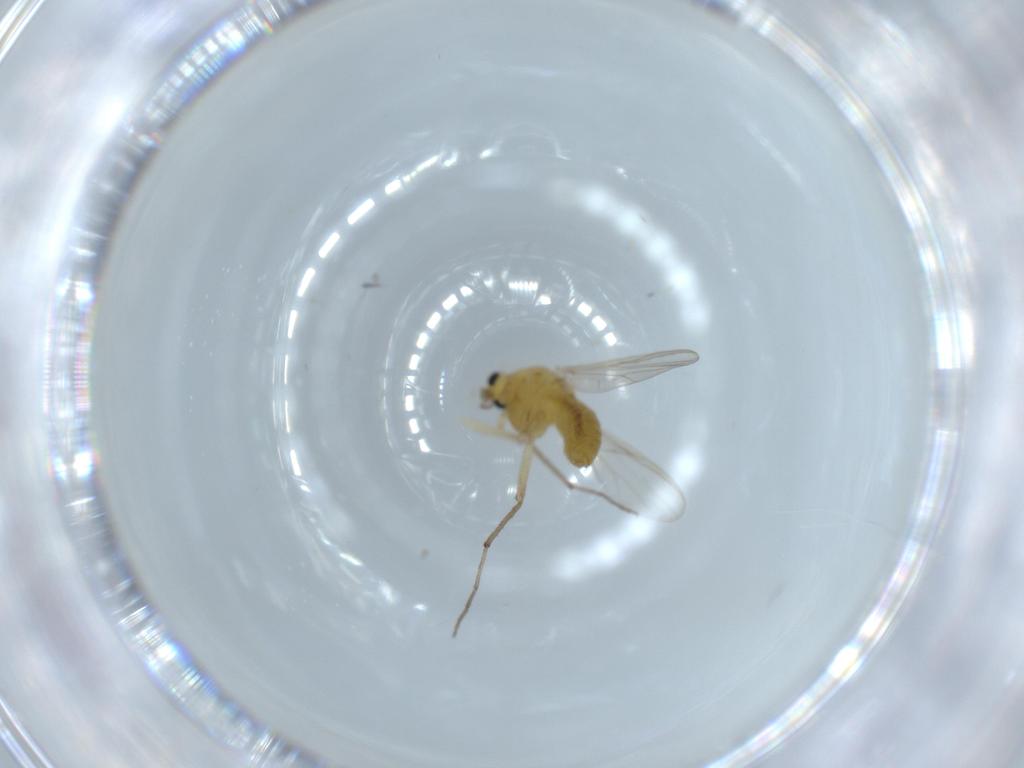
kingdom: Animalia
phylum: Arthropoda
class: Insecta
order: Diptera
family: Chironomidae
